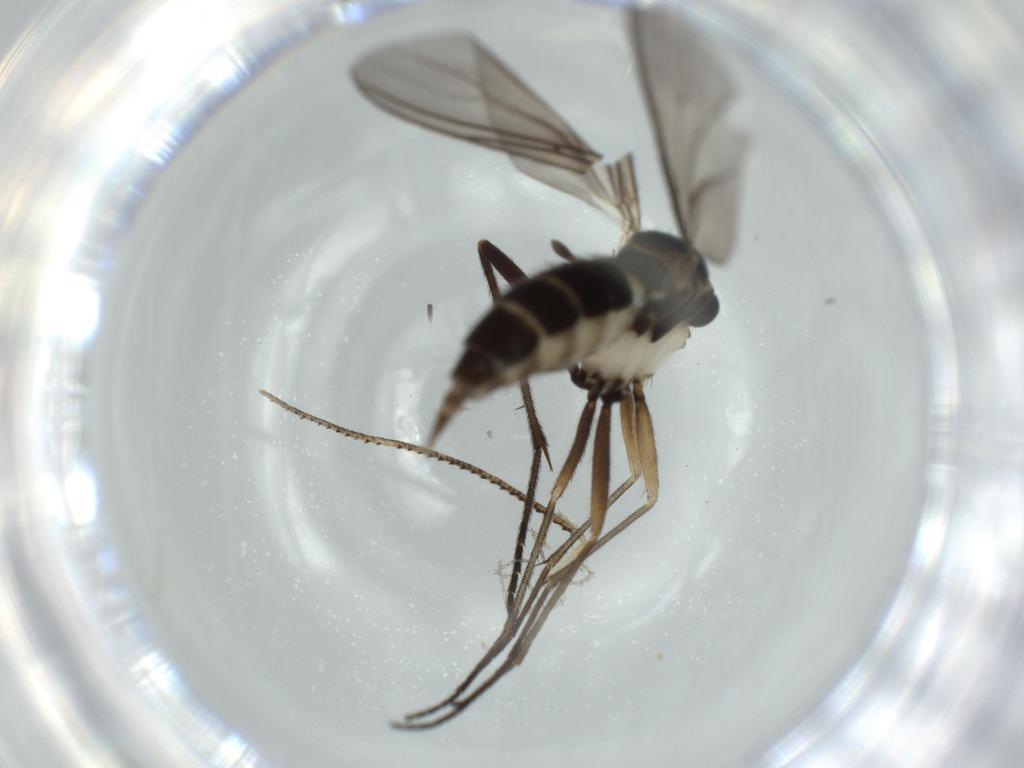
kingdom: Animalia
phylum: Arthropoda
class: Insecta
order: Diptera
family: Sciaridae
